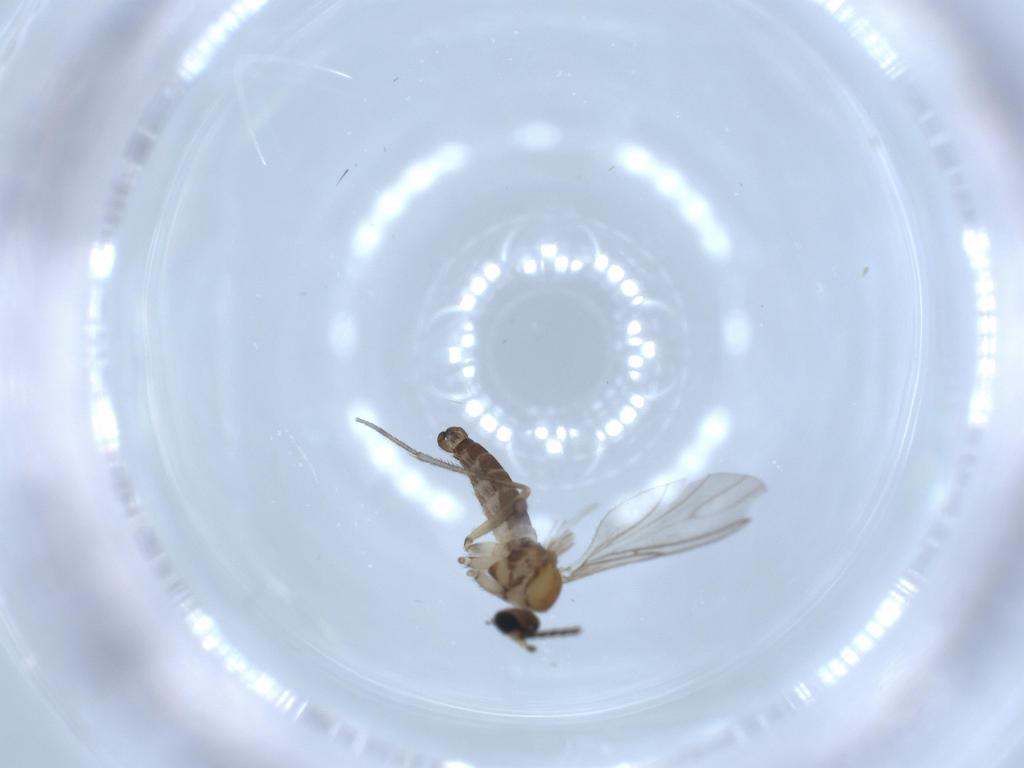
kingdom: Animalia
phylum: Arthropoda
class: Insecta
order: Diptera
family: Sciaridae
